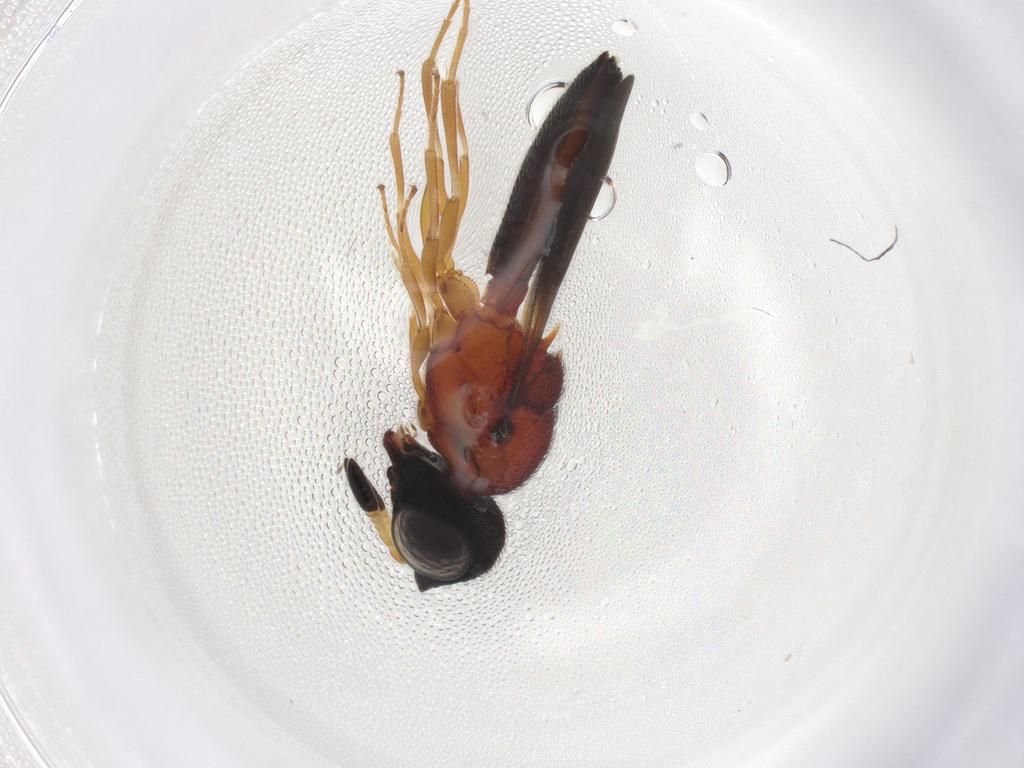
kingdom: Animalia
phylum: Arthropoda
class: Insecta
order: Hymenoptera
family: Scelionidae
